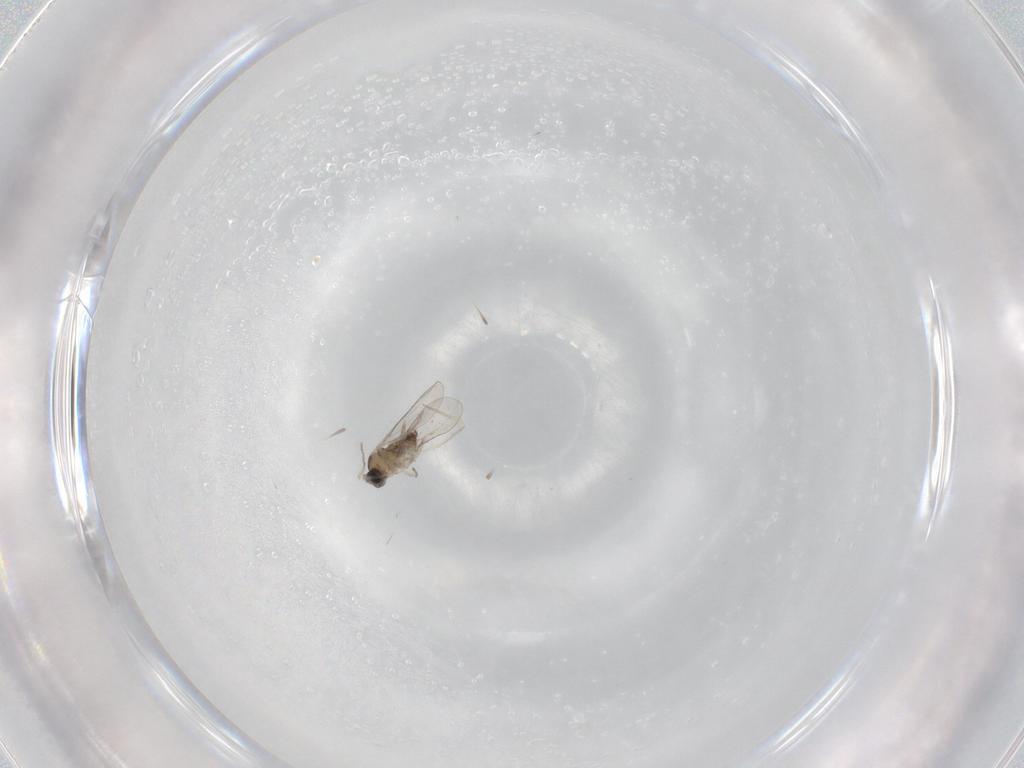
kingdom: Animalia
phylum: Arthropoda
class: Insecta
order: Diptera
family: Cecidomyiidae
